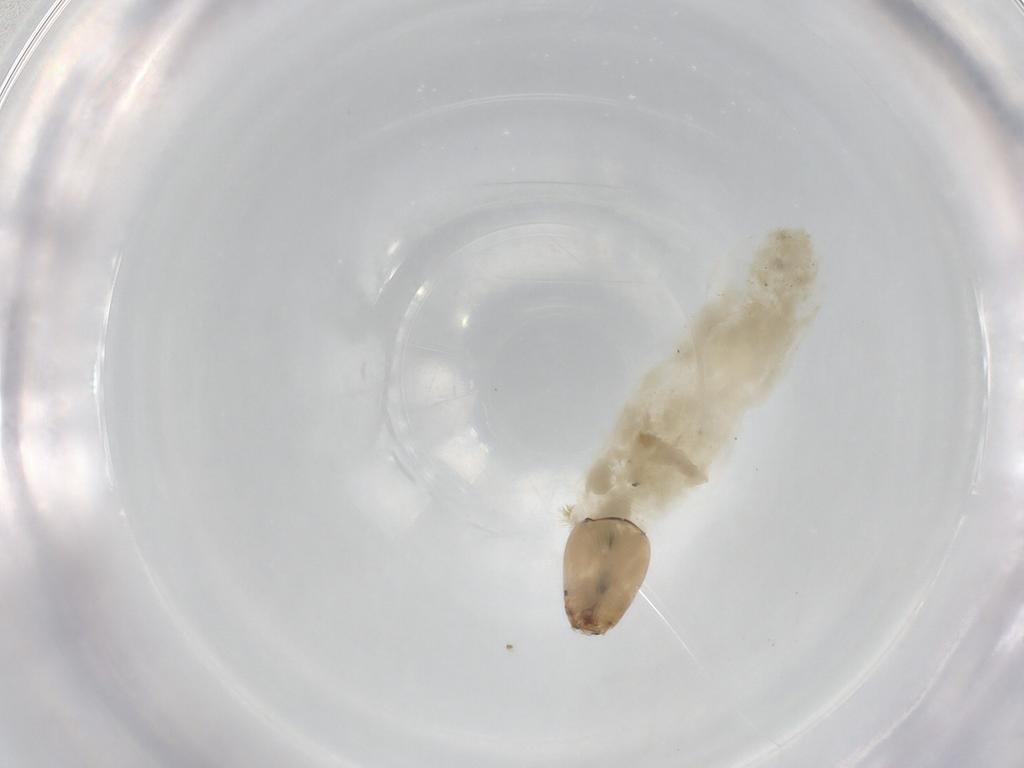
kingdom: Animalia
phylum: Arthropoda
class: Insecta
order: Diptera
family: Chironomidae
